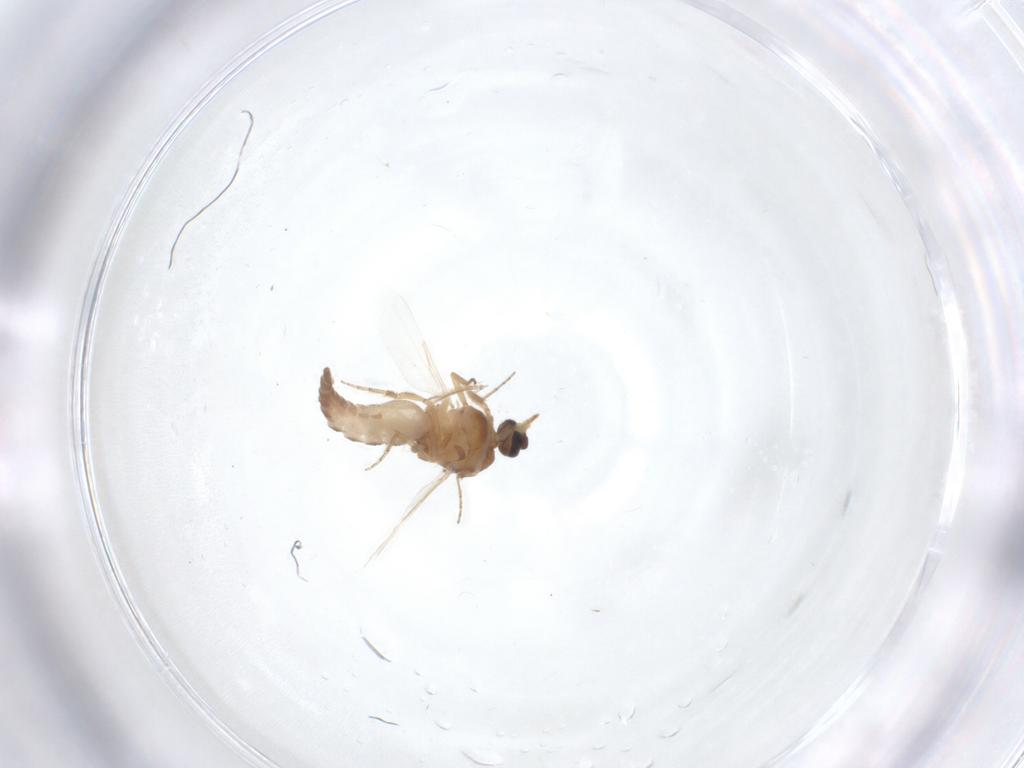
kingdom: Animalia
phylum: Arthropoda
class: Insecta
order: Diptera
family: Ceratopogonidae
